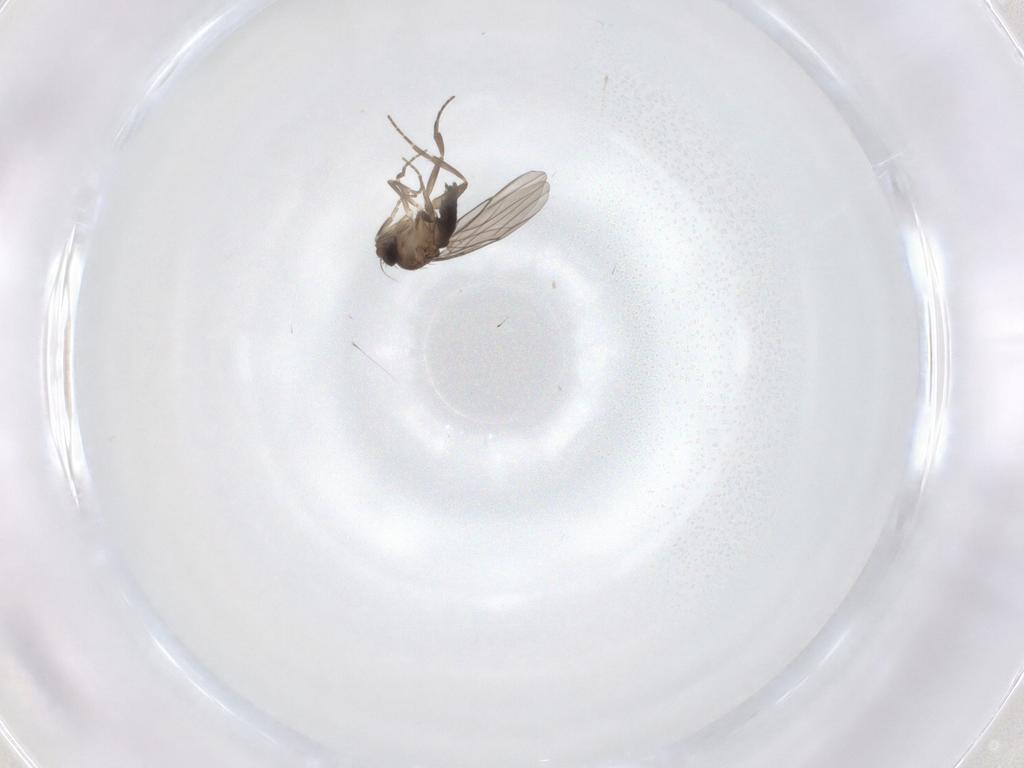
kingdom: Animalia
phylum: Arthropoda
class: Insecta
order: Diptera
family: Phoridae
